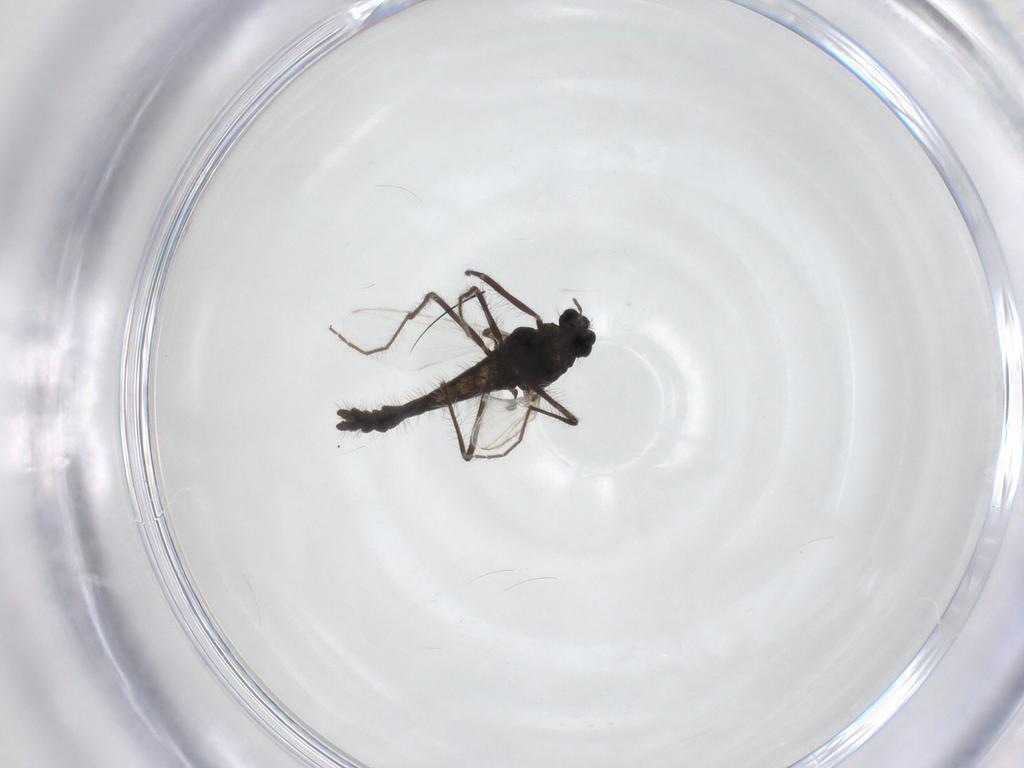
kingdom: Animalia
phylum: Arthropoda
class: Insecta
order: Diptera
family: Chironomidae
